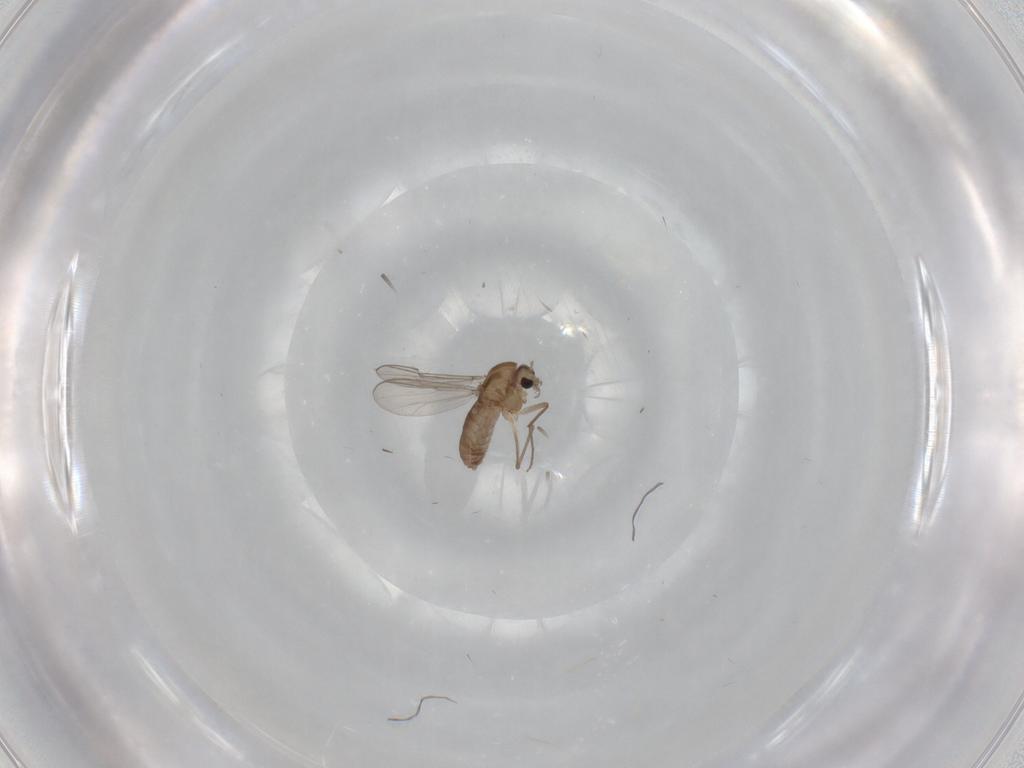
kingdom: Animalia
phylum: Arthropoda
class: Insecta
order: Diptera
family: Chironomidae
